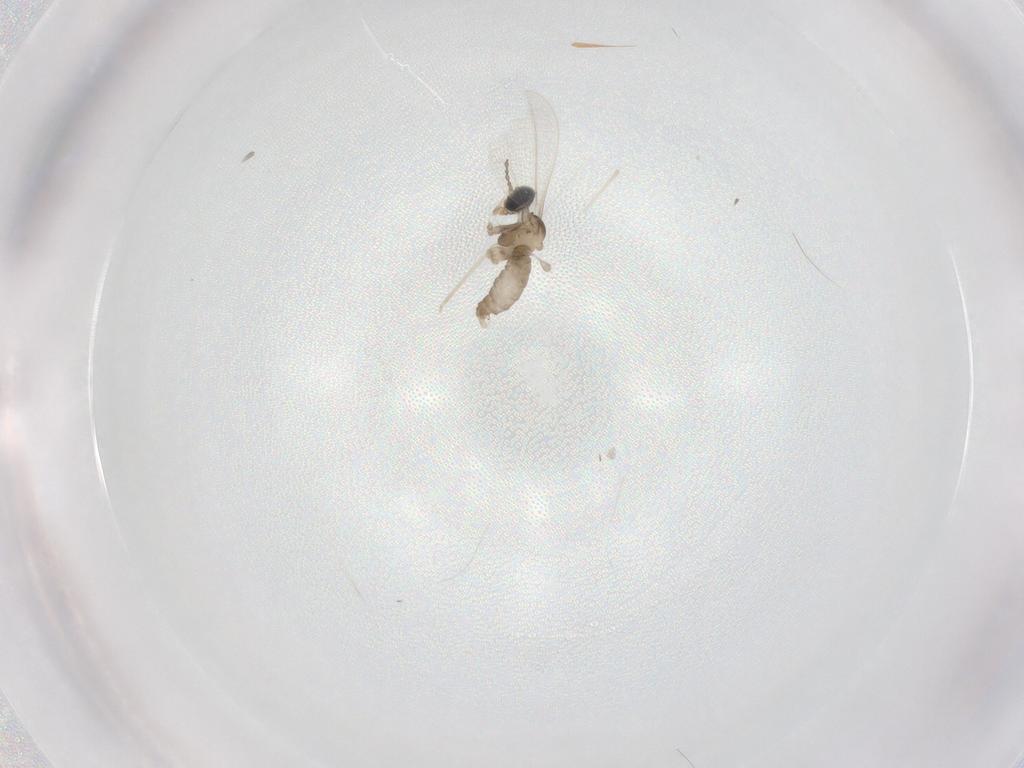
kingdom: Animalia
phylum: Arthropoda
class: Insecta
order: Diptera
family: Cecidomyiidae
